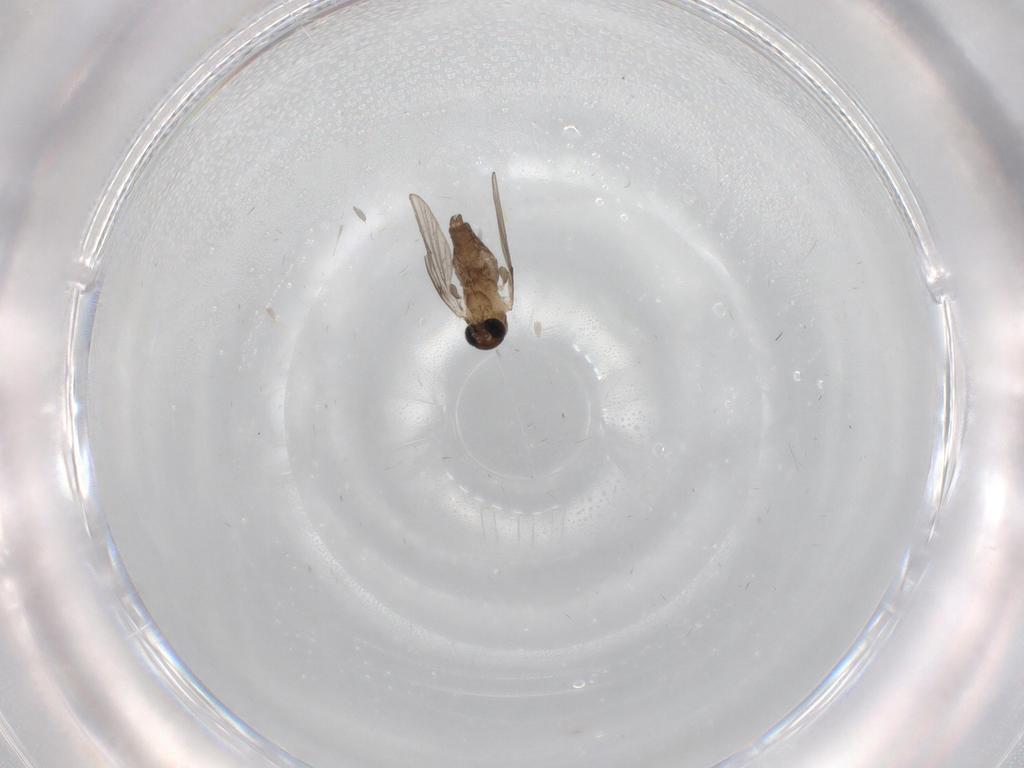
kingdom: Animalia
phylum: Arthropoda
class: Insecta
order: Diptera
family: Psychodidae
